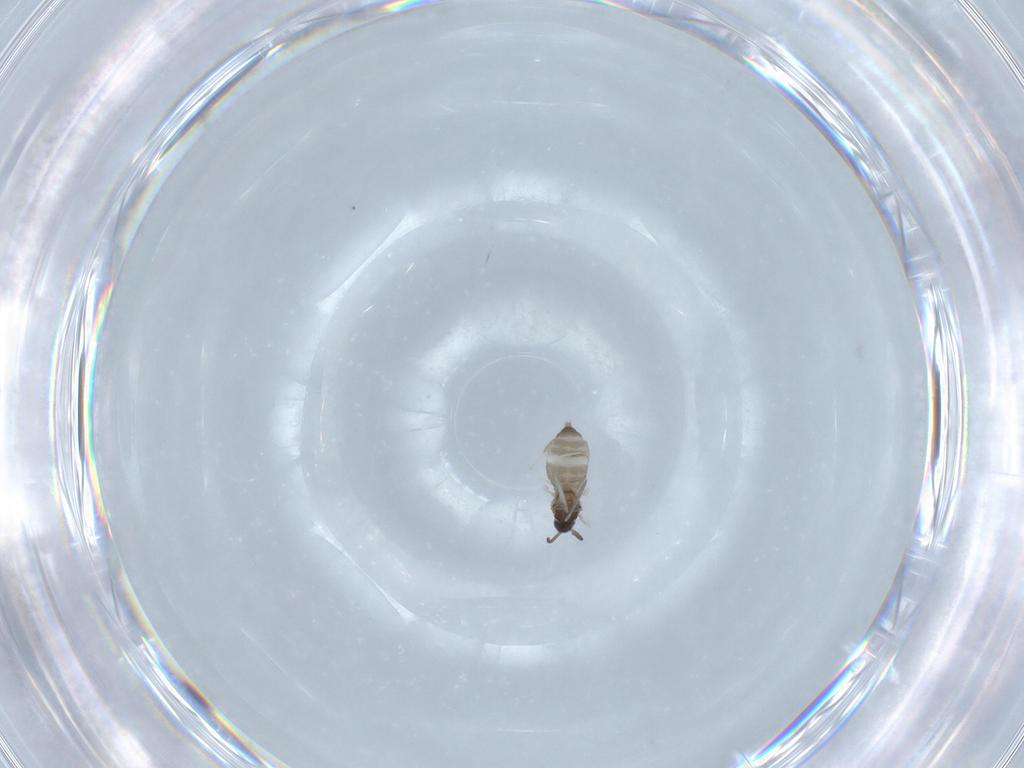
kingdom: Animalia
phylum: Arthropoda
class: Insecta
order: Diptera
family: Cecidomyiidae
